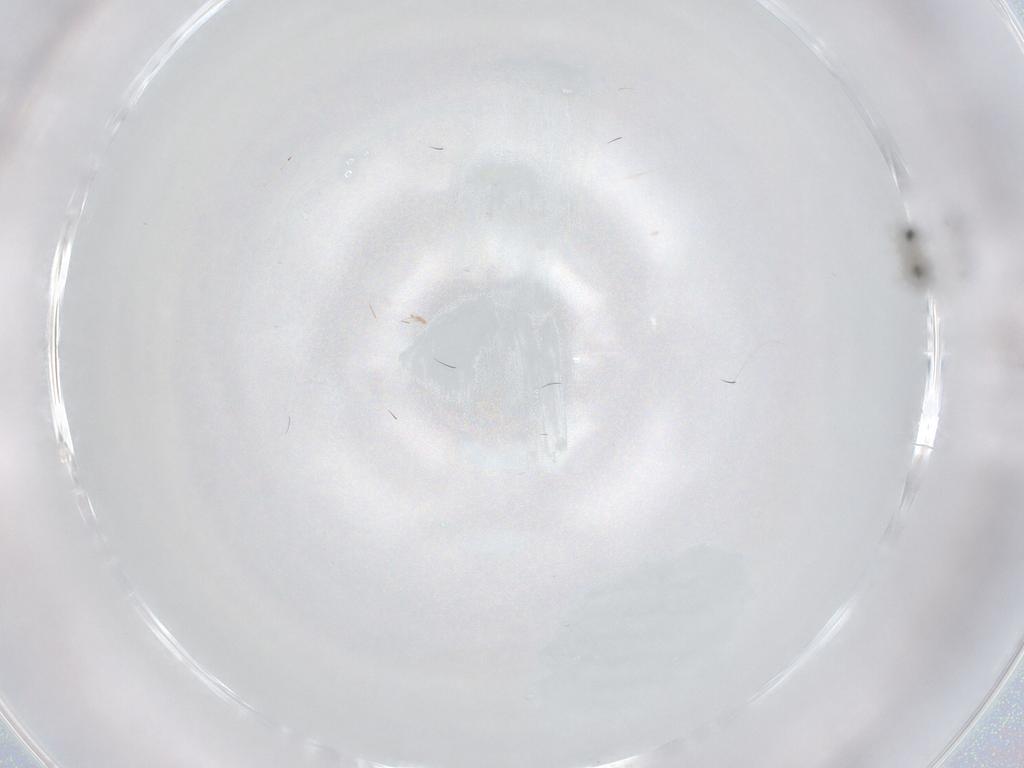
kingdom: Animalia
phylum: Arthropoda
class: Insecta
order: Hymenoptera
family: Mymaridae
